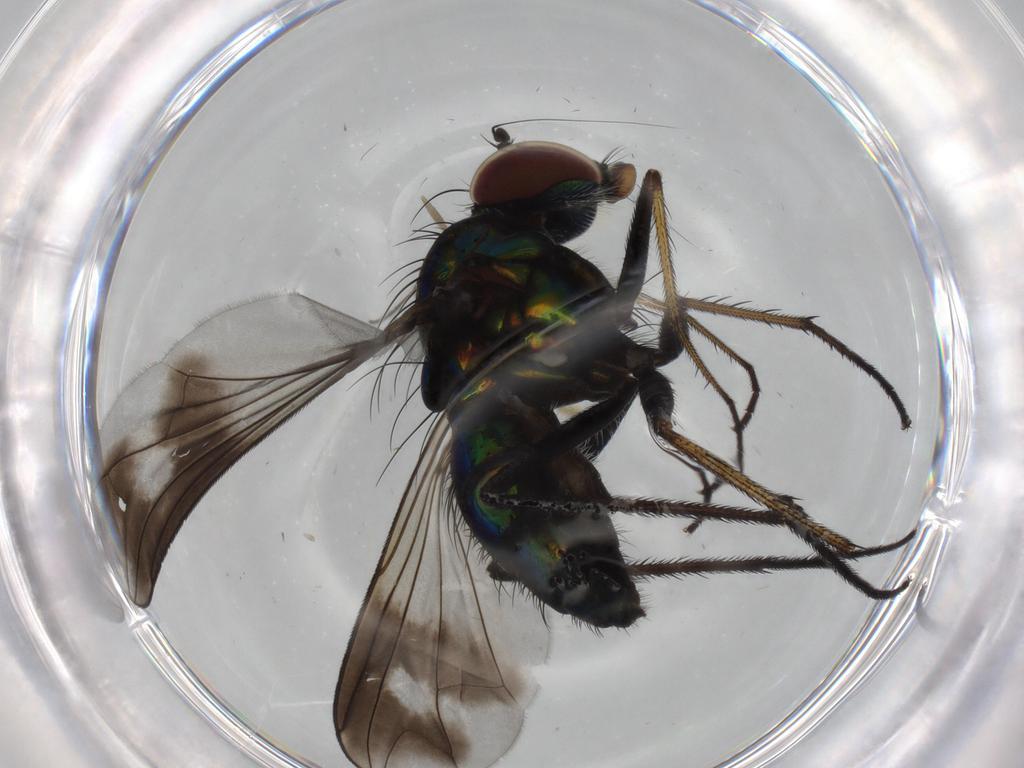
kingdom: Animalia
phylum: Arthropoda
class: Insecta
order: Diptera
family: Dolichopodidae
